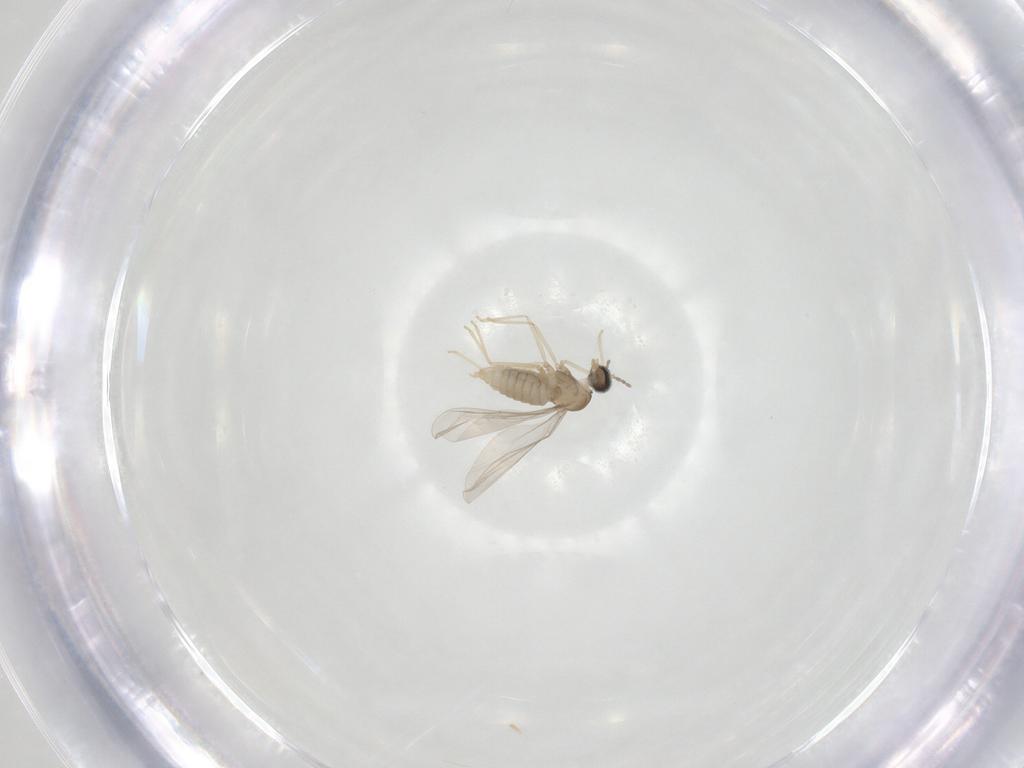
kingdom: Animalia
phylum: Arthropoda
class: Insecta
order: Diptera
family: Cecidomyiidae
